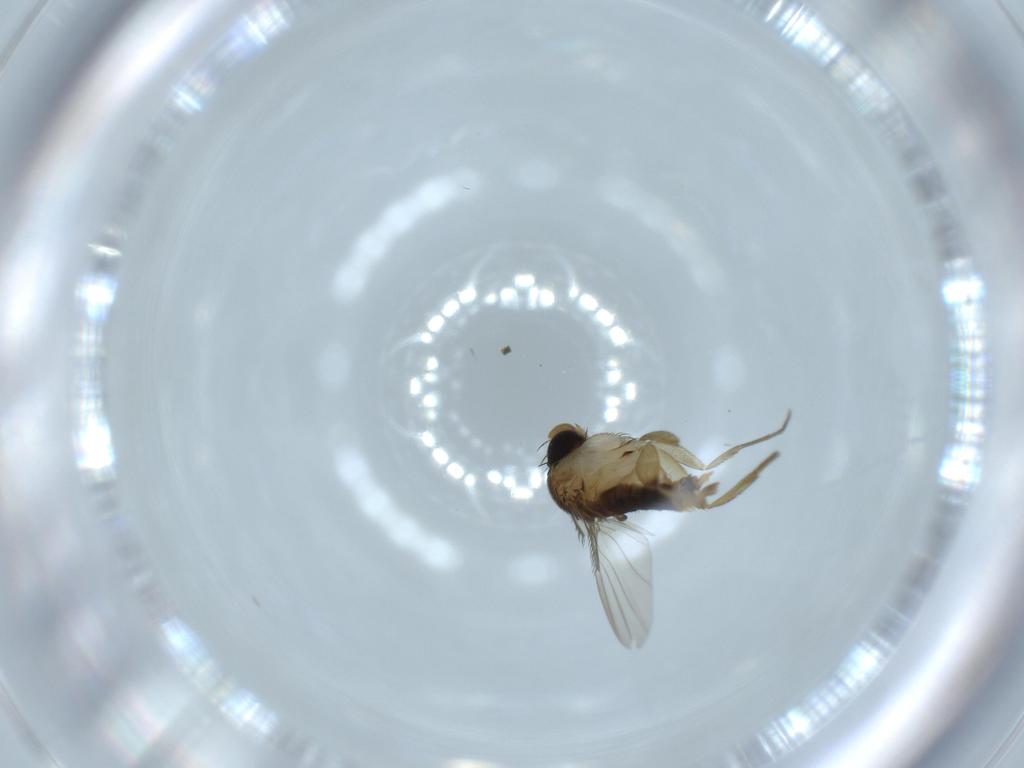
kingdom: Animalia
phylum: Arthropoda
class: Insecta
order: Diptera
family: Phoridae
